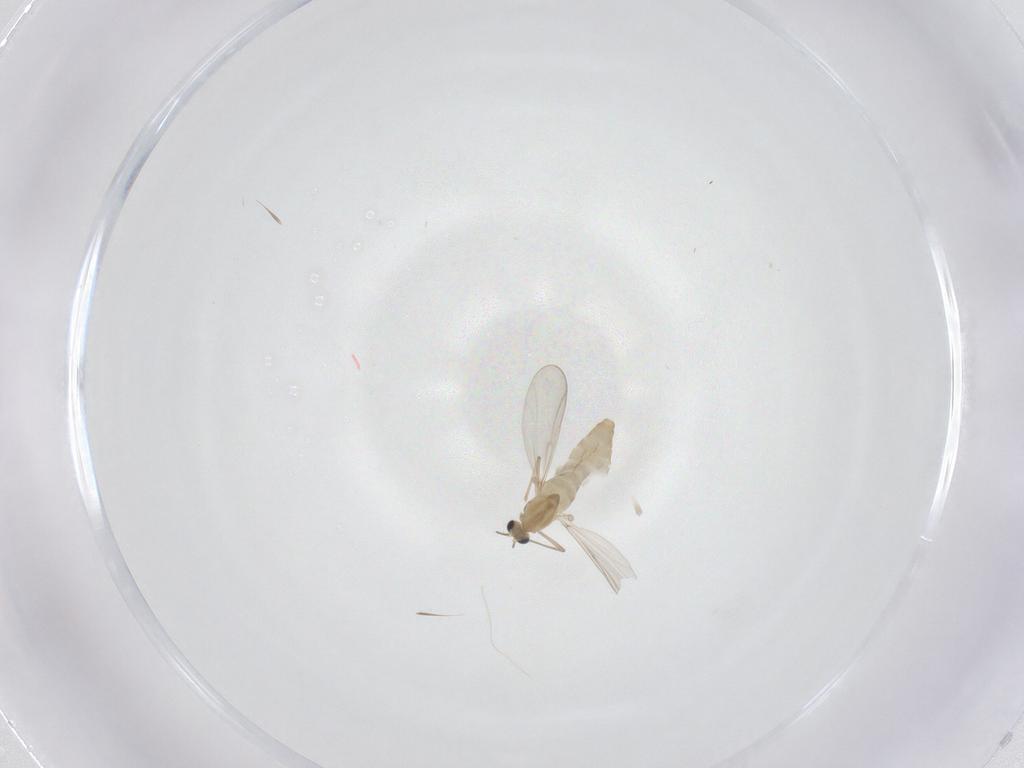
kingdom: Animalia
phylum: Arthropoda
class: Insecta
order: Diptera
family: Chironomidae
